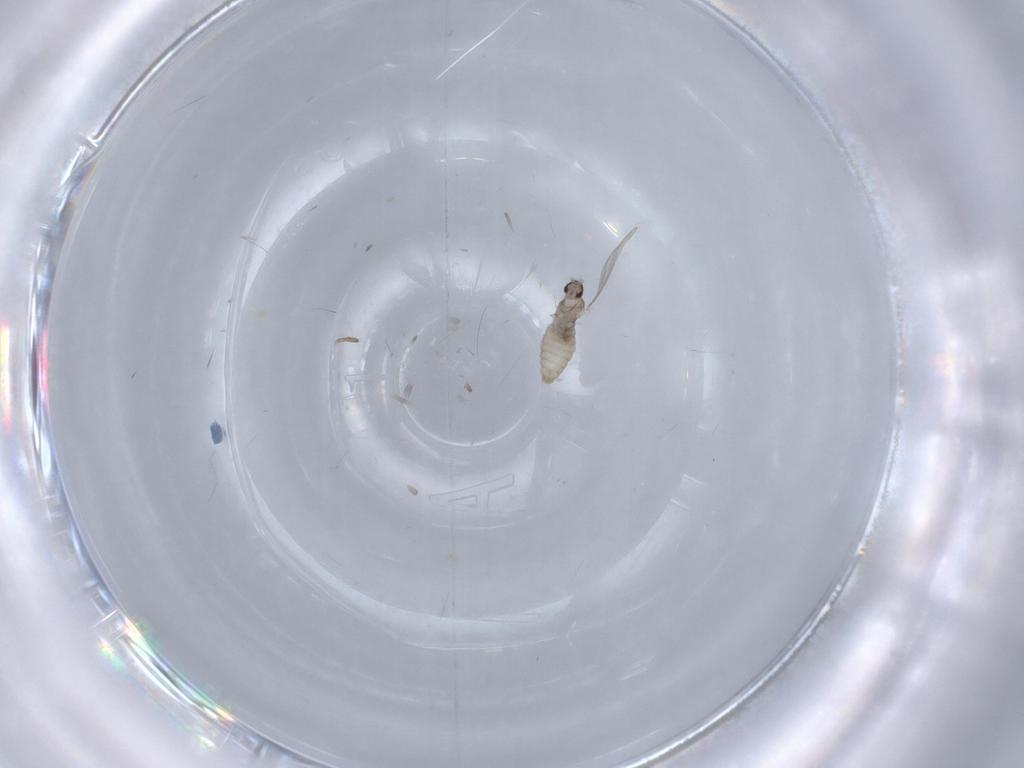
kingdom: Animalia
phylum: Arthropoda
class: Insecta
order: Diptera
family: Cecidomyiidae
